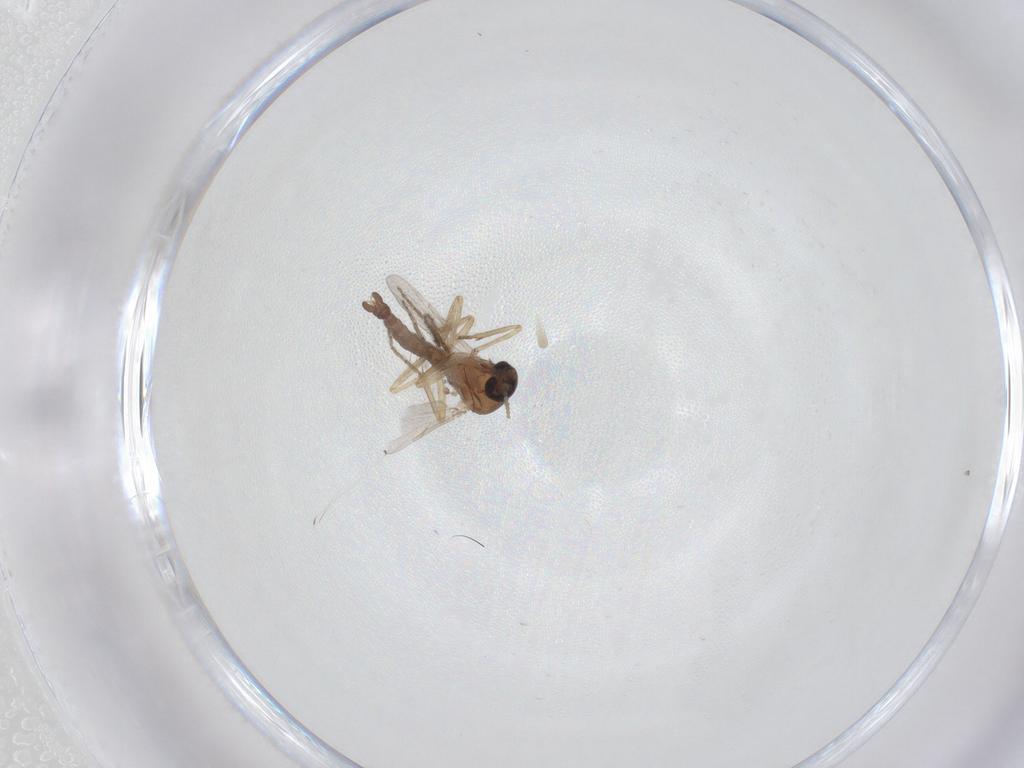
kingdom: Animalia
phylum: Arthropoda
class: Insecta
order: Diptera
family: Ceratopogonidae
